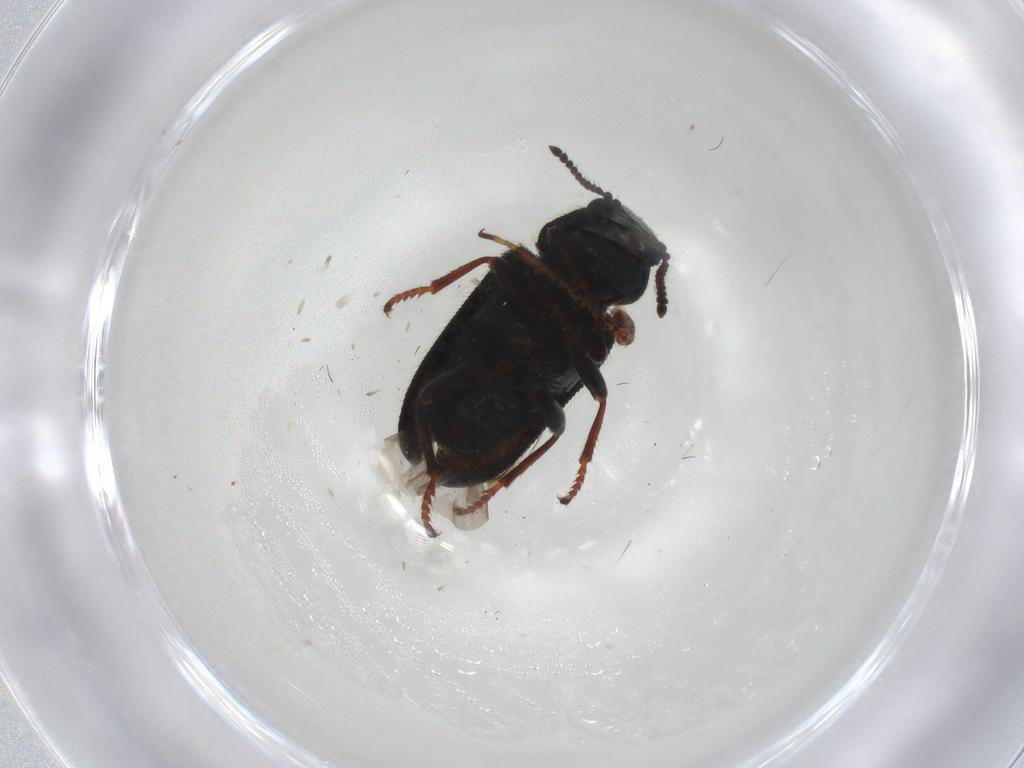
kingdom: Animalia
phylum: Arthropoda
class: Insecta
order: Coleoptera
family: Melyridae
